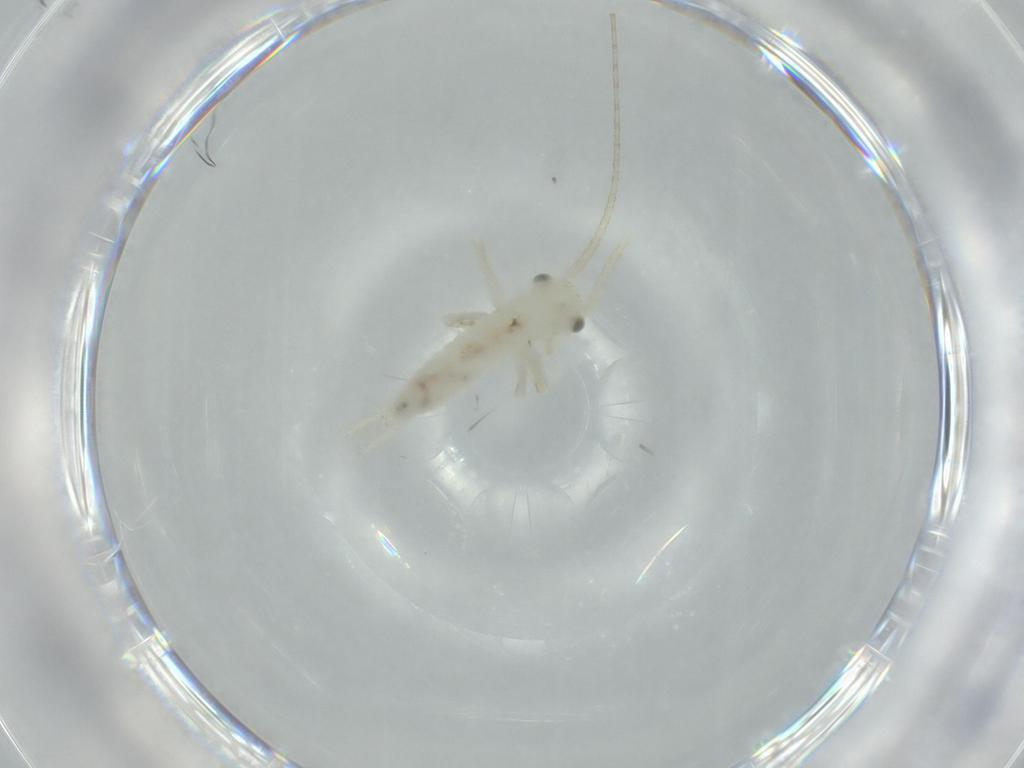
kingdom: Animalia
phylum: Arthropoda
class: Insecta
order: Orthoptera
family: Trigonidiidae
